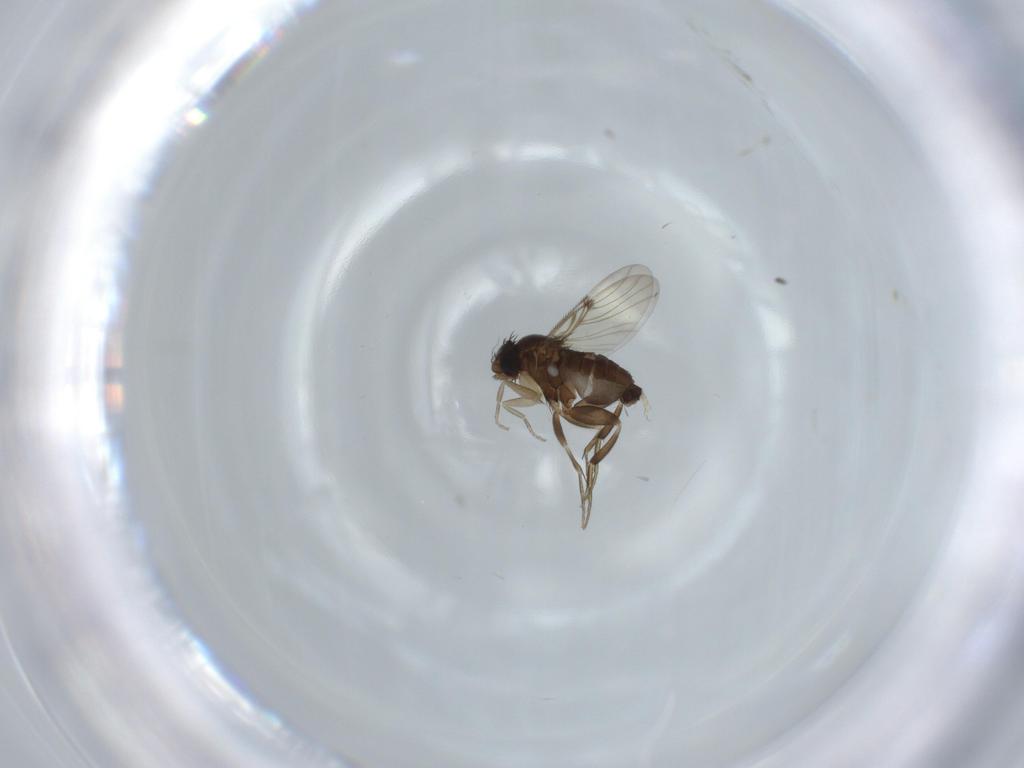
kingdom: Animalia
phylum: Arthropoda
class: Insecta
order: Diptera
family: Phoridae
